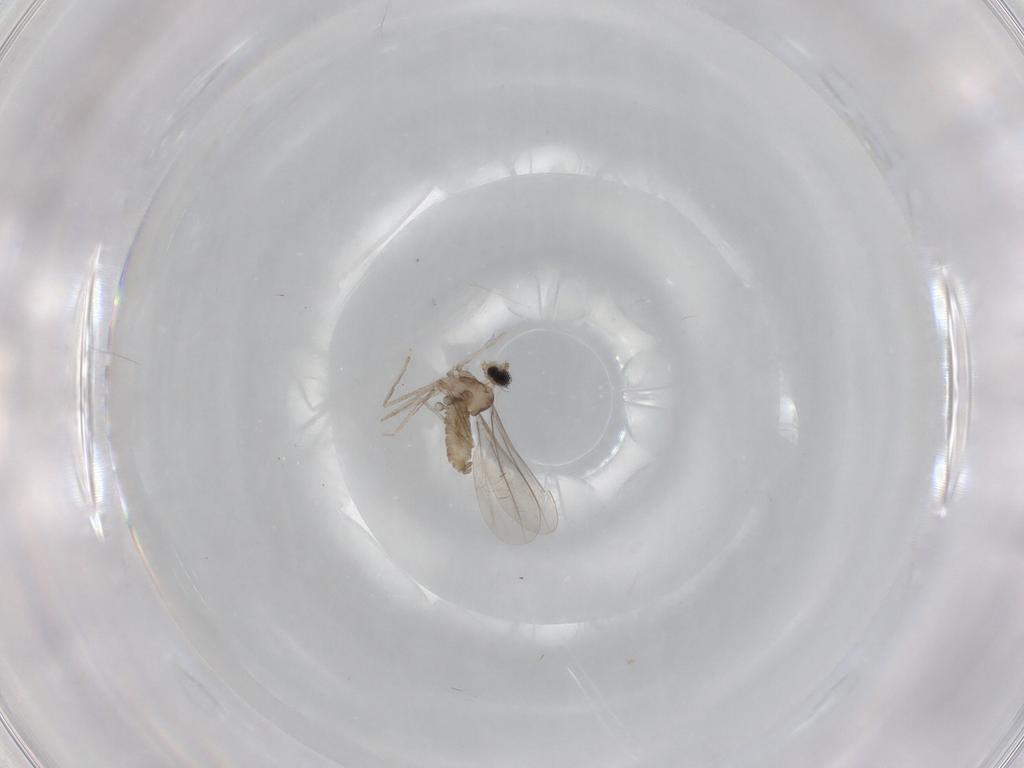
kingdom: Animalia
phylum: Arthropoda
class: Insecta
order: Diptera
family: Cecidomyiidae
